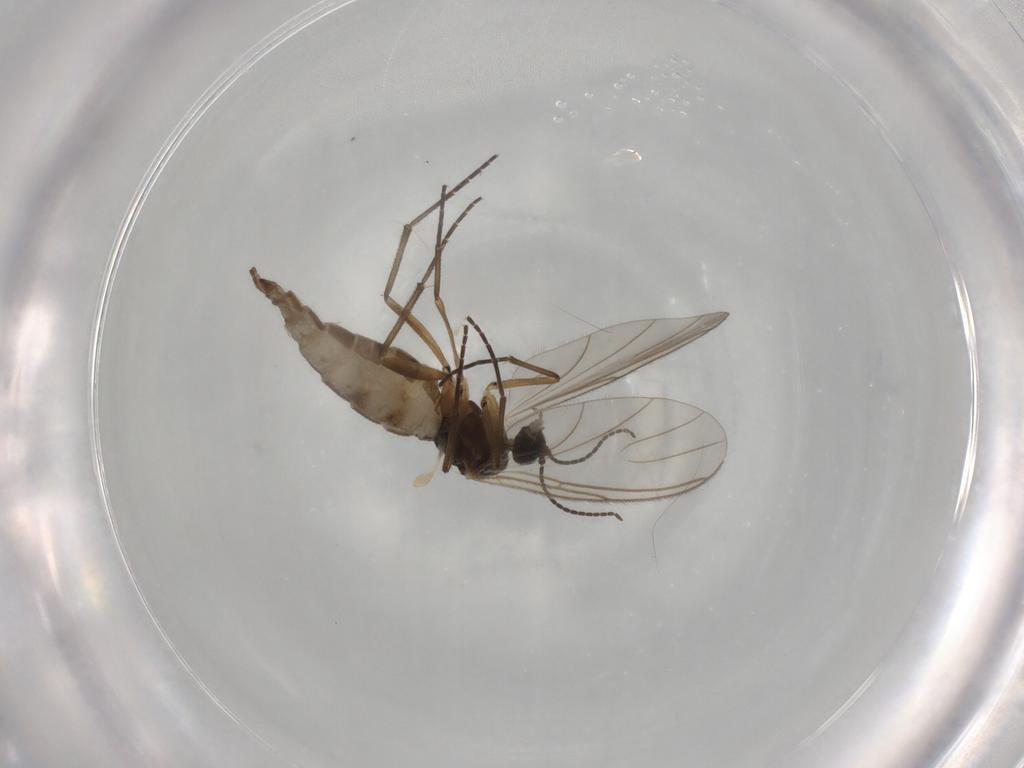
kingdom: Animalia
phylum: Arthropoda
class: Insecta
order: Diptera
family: Sciaridae
